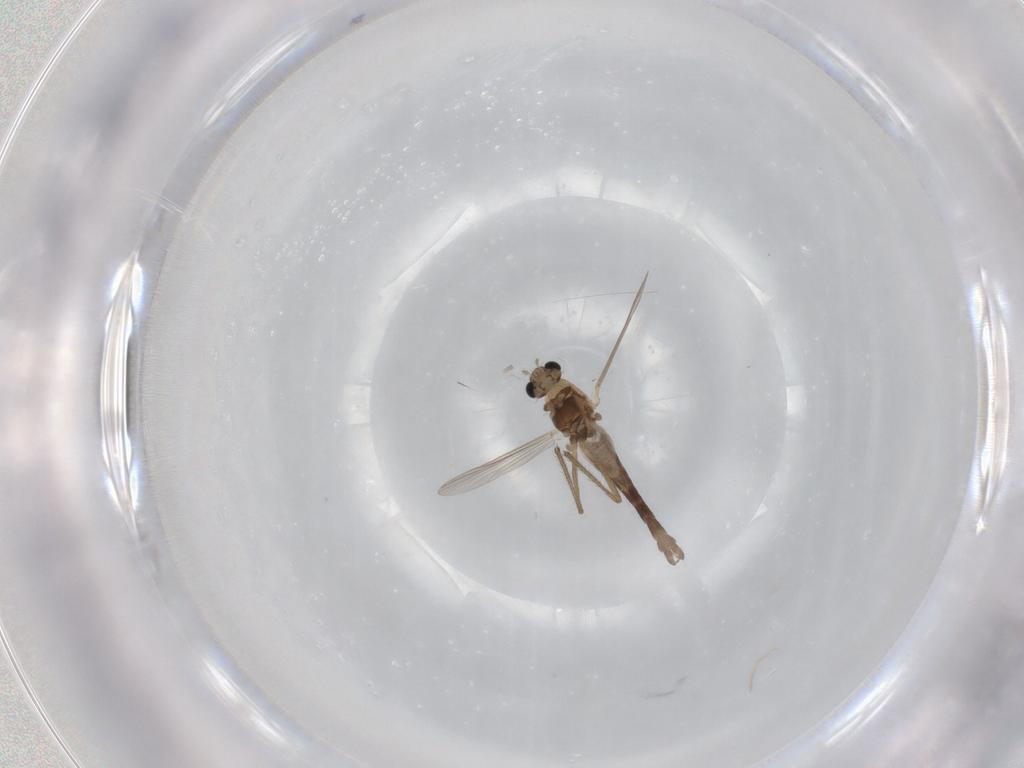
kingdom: Animalia
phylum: Arthropoda
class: Insecta
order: Diptera
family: Chironomidae
